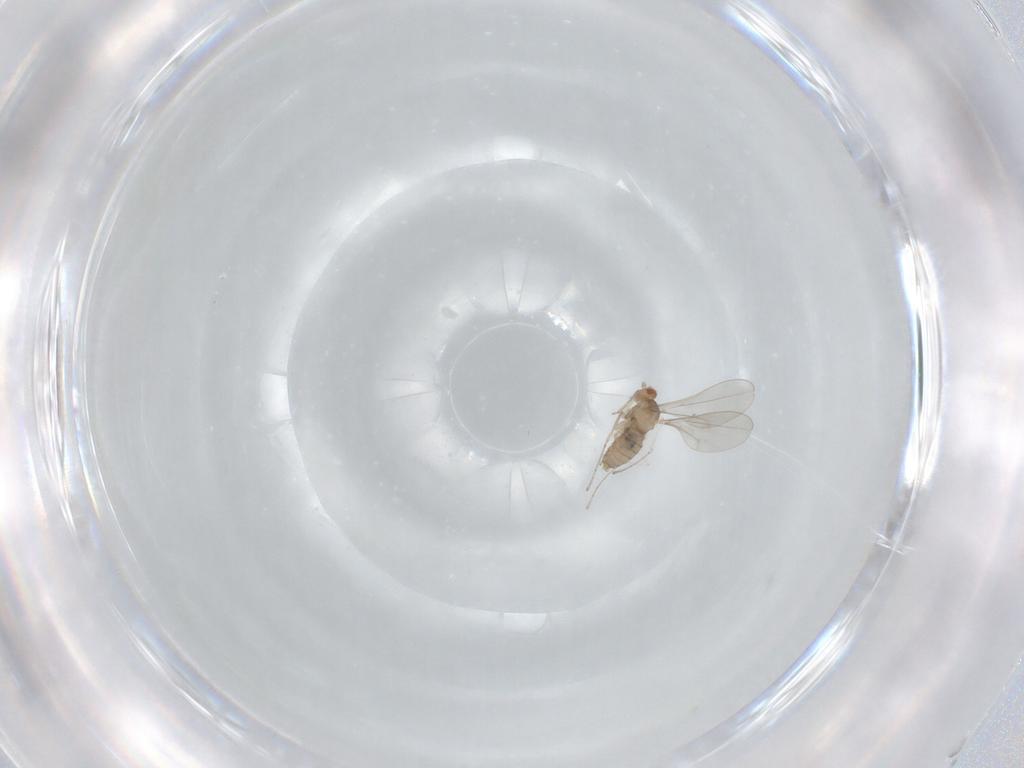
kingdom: Animalia
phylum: Arthropoda
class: Insecta
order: Diptera
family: Cecidomyiidae
